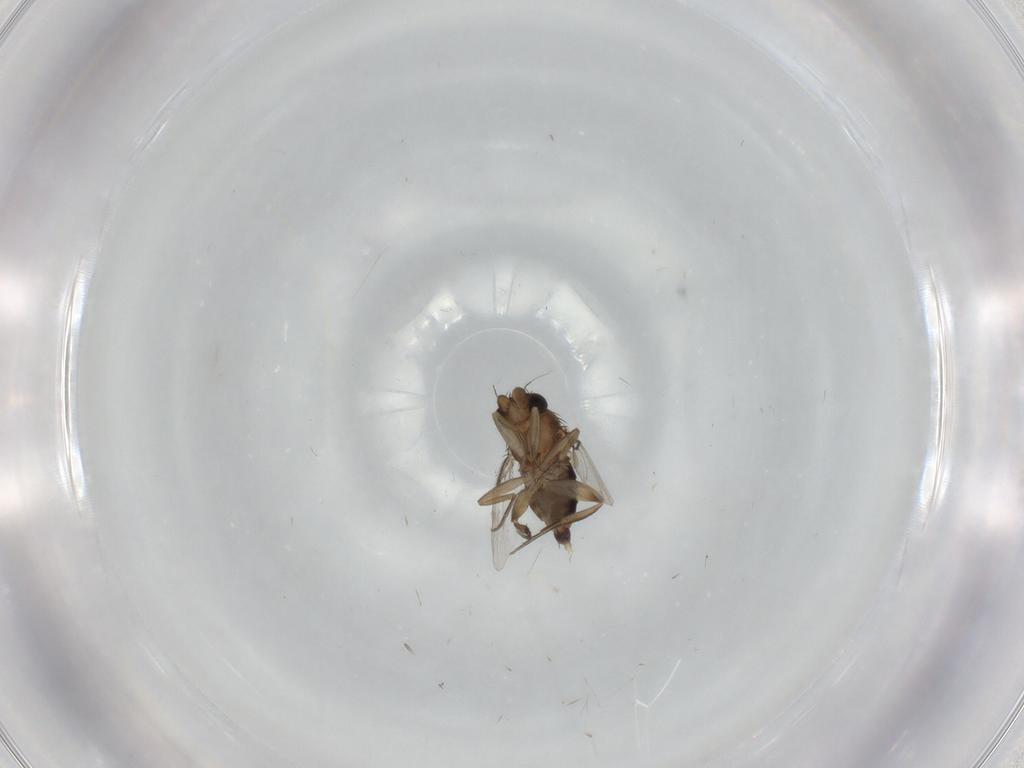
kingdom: Animalia
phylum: Arthropoda
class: Insecta
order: Diptera
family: Phoridae
